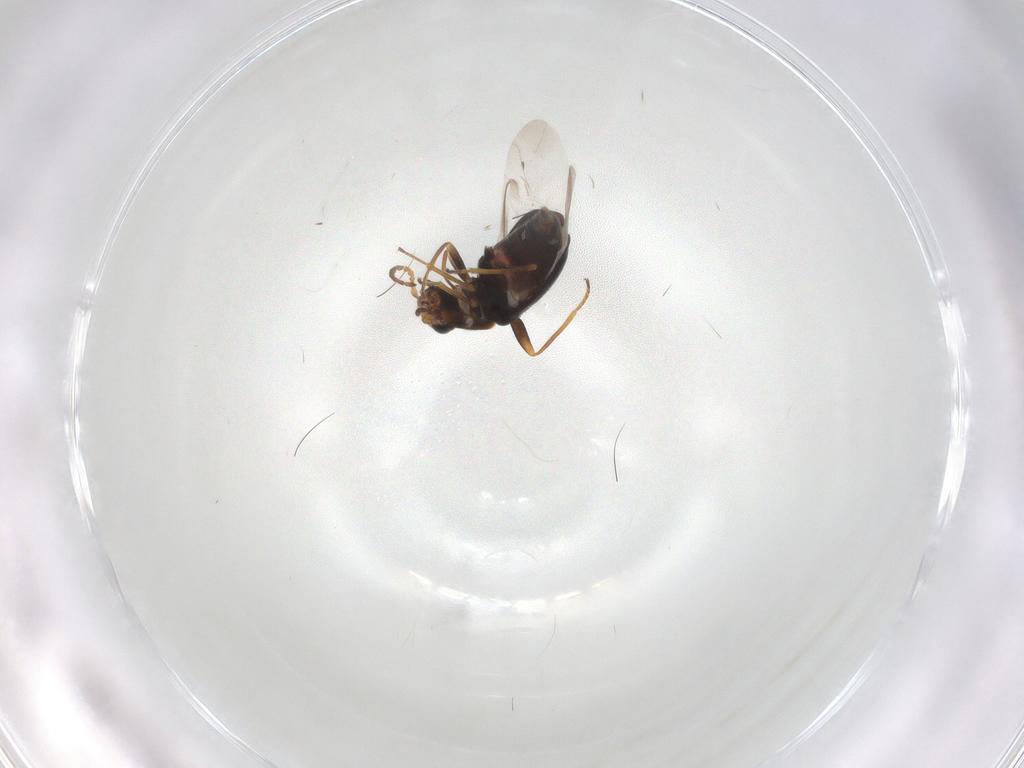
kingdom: Animalia
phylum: Arthropoda
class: Insecta
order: Coleoptera
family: Melyridae
